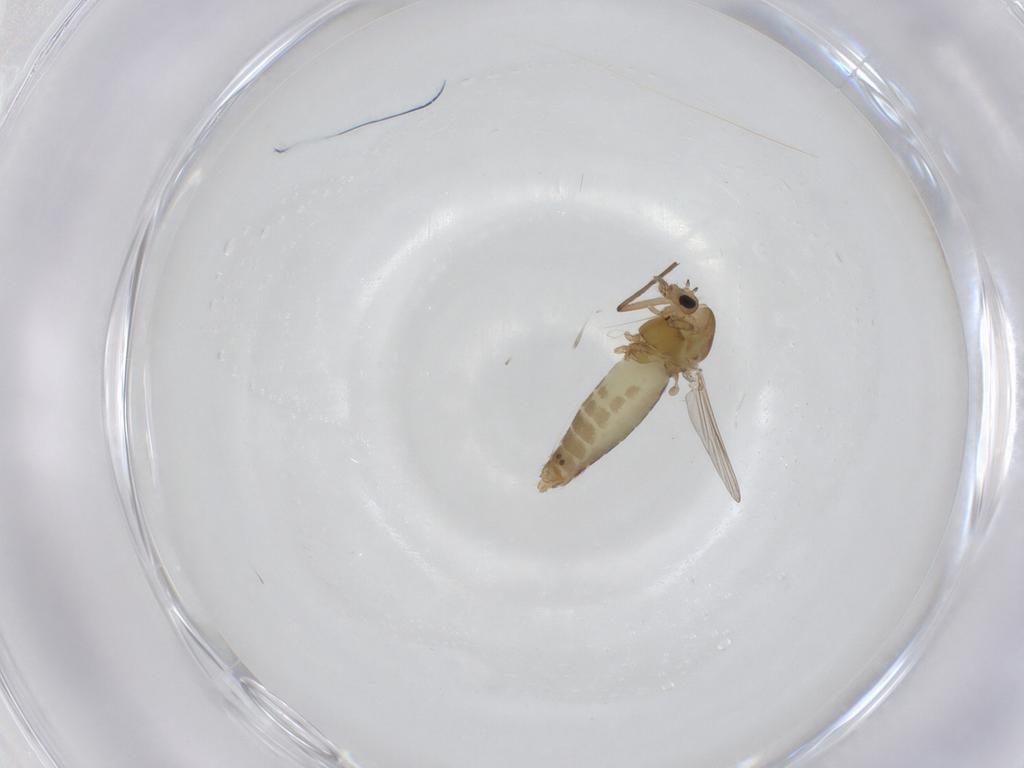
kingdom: Animalia
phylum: Arthropoda
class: Insecta
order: Diptera
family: Chironomidae
